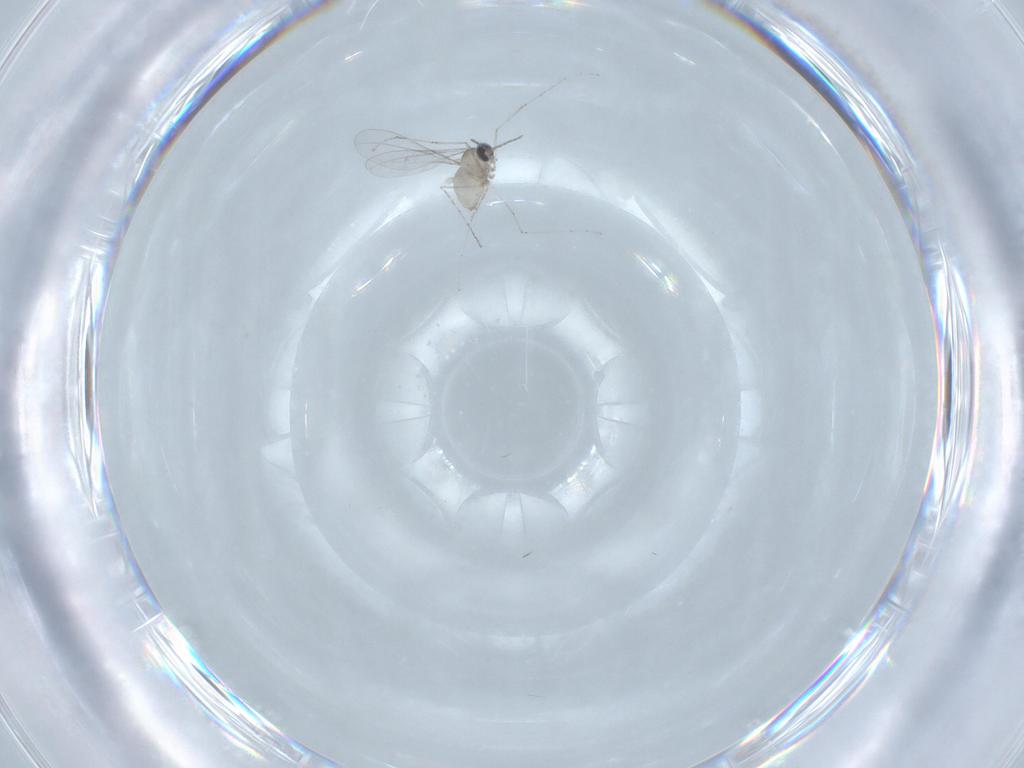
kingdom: Animalia
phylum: Arthropoda
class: Insecta
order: Diptera
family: Cecidomyiidae
